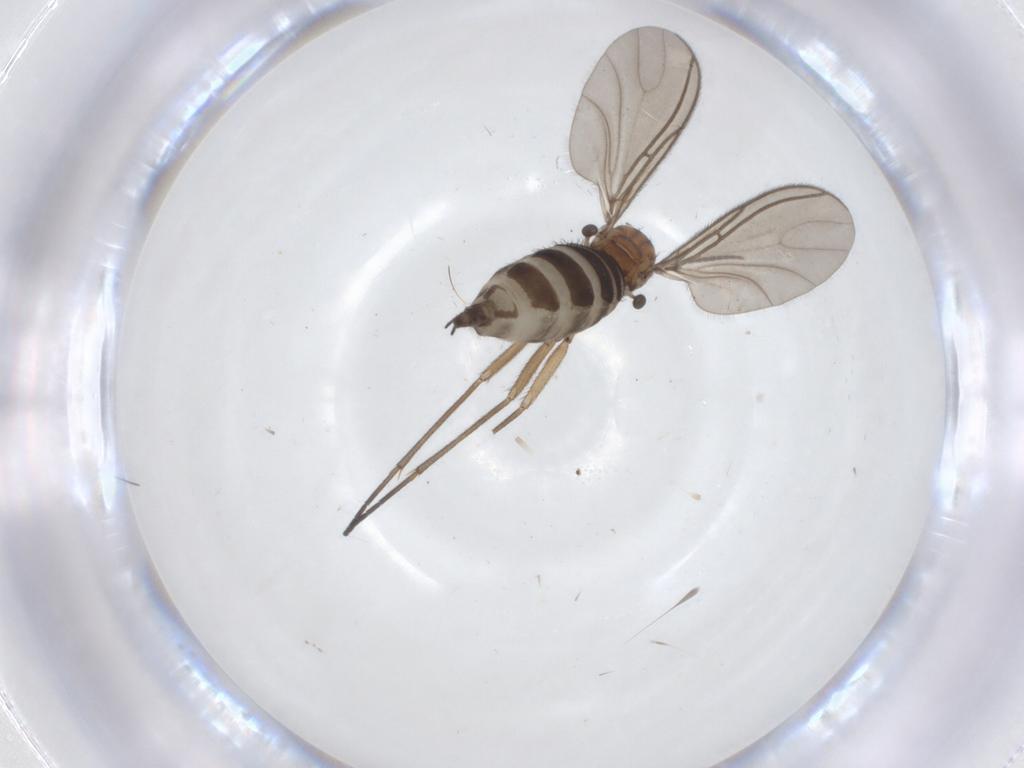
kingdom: Animalia
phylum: Arthropoda
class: Insecta
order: Diptera
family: Sciaridae
